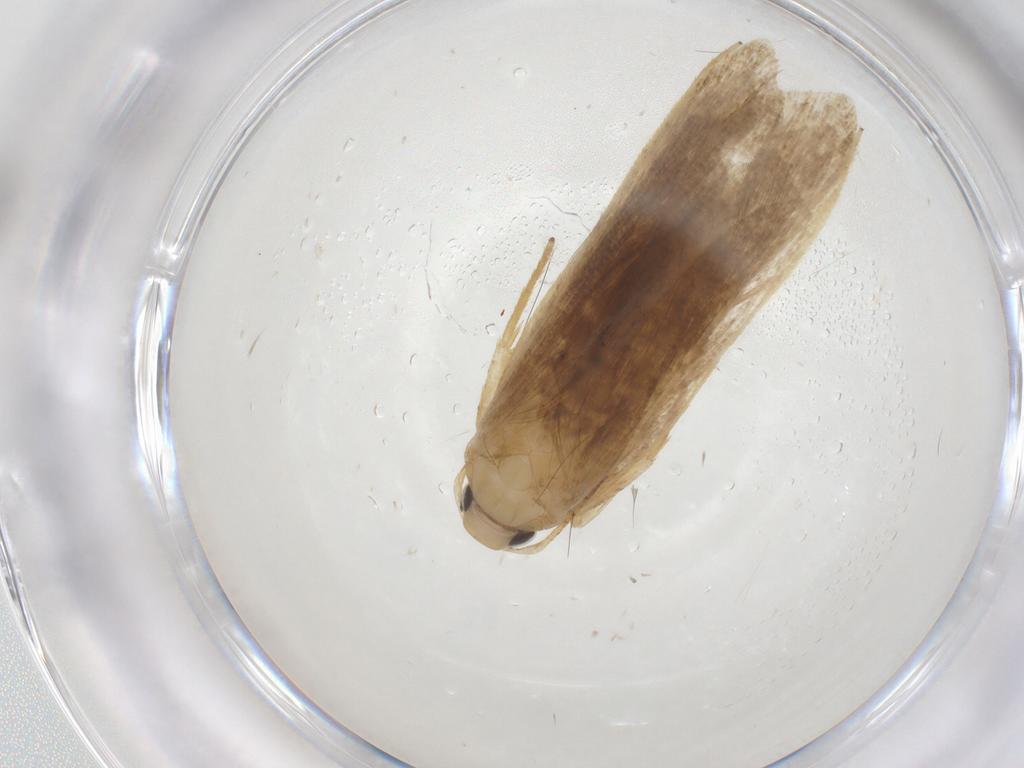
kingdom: Animalia
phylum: Arthropoda
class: Insecta
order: Lepidoptera
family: Gelechiidae
